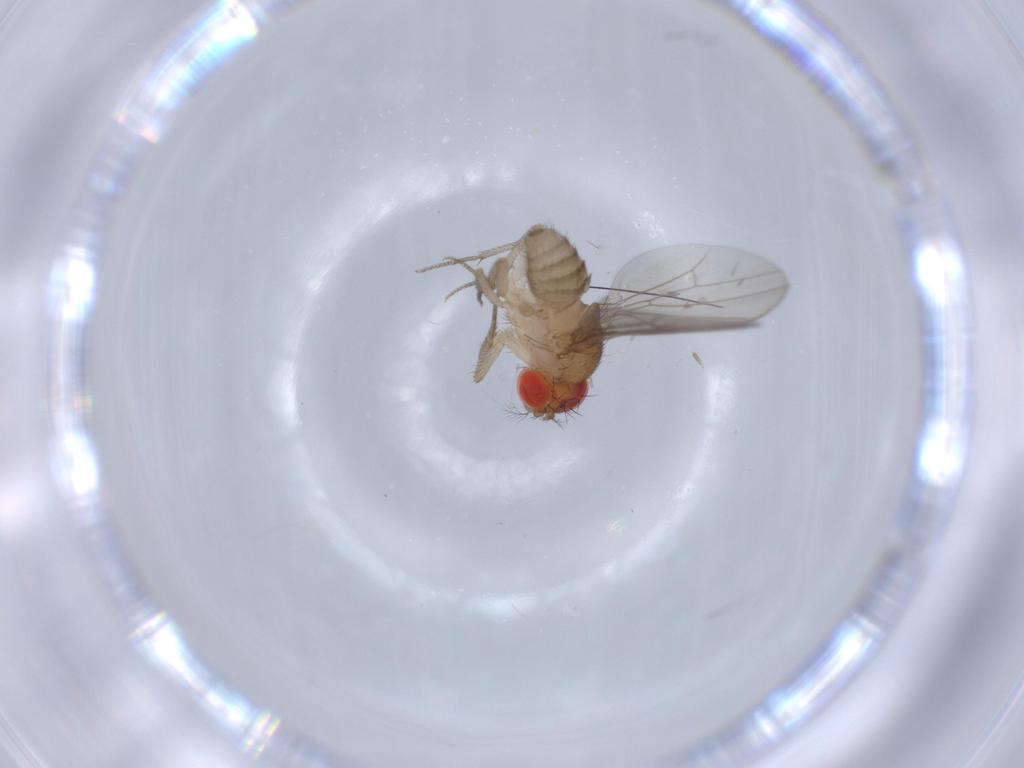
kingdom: Animalia
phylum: Arthropoda
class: Insecta
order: Diptera
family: Drosophilidae
